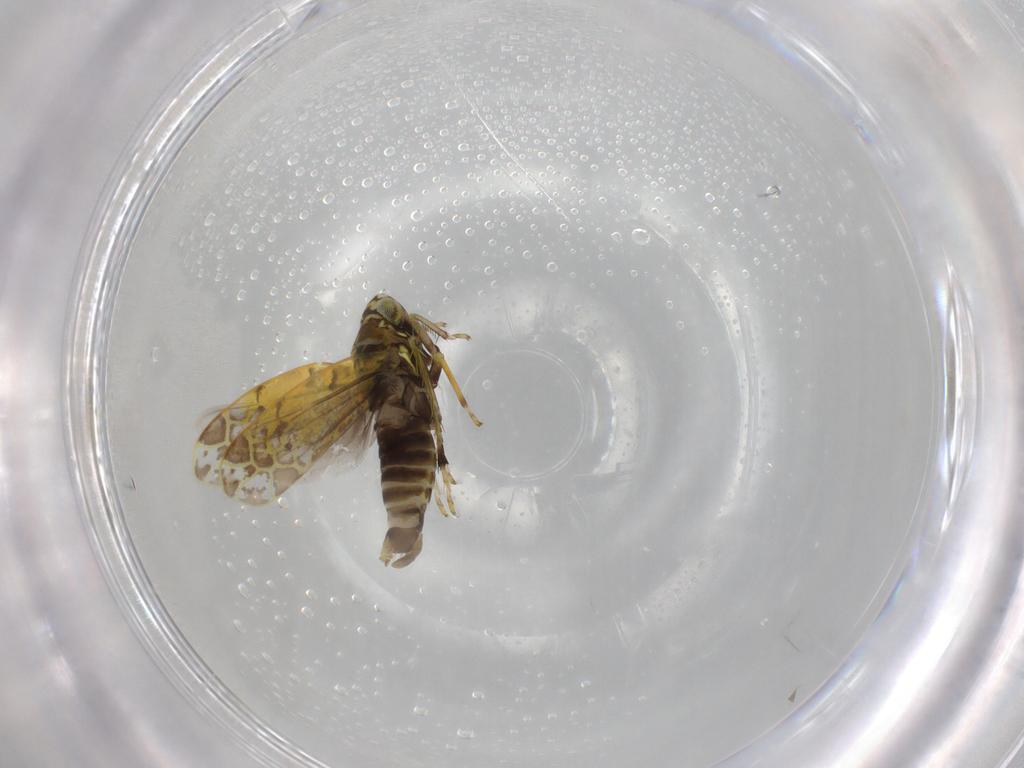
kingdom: Animalia
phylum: Arthropoda
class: Insecta
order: Hemiptera
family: Cicadellidae
